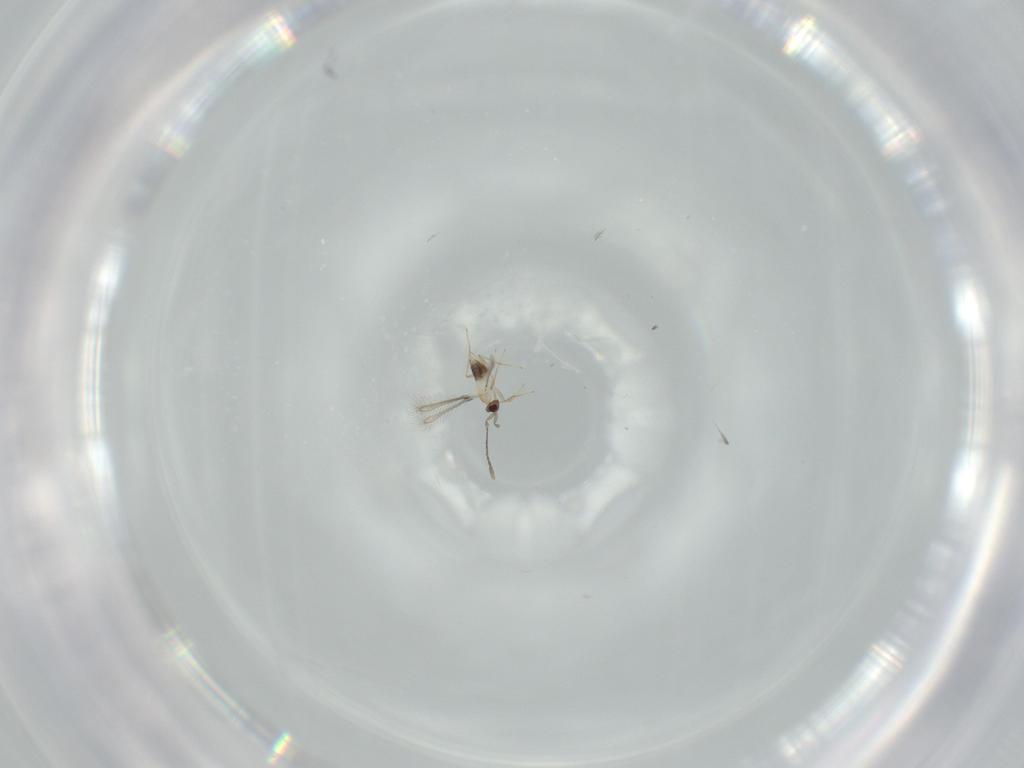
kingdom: Animalia
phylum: Arthropoda
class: Insecta
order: Hymenoptera
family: Mymaridae
